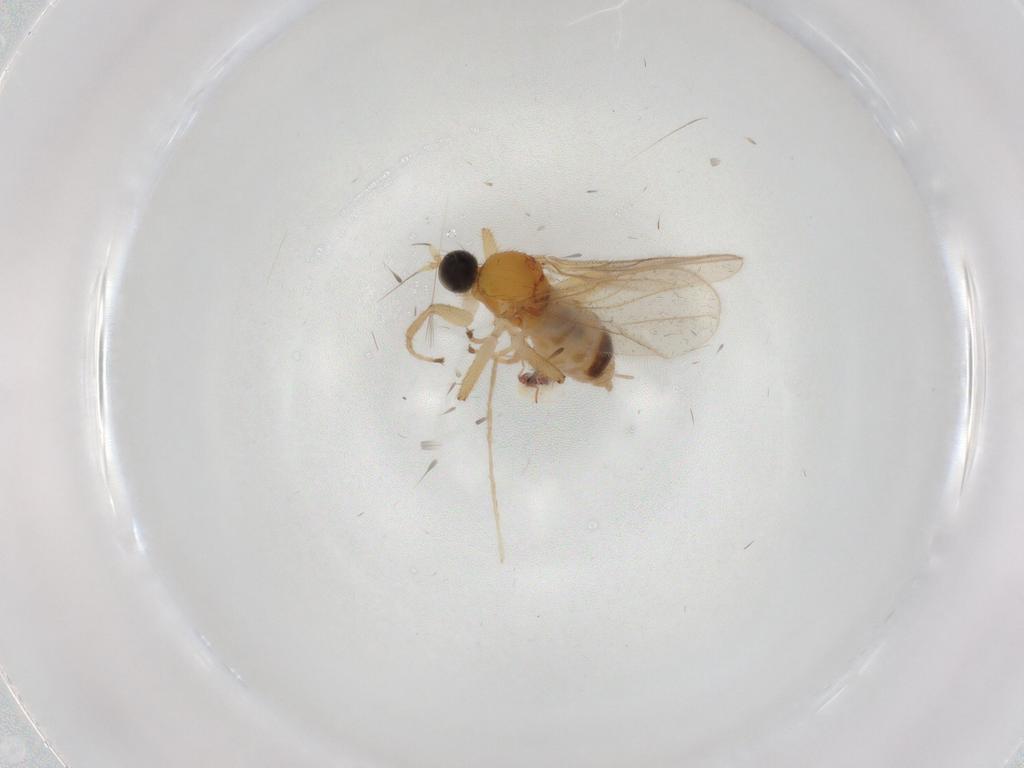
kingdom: Animalia
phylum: Arthropoda
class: Insecta
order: Diptera
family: Hybotidae
